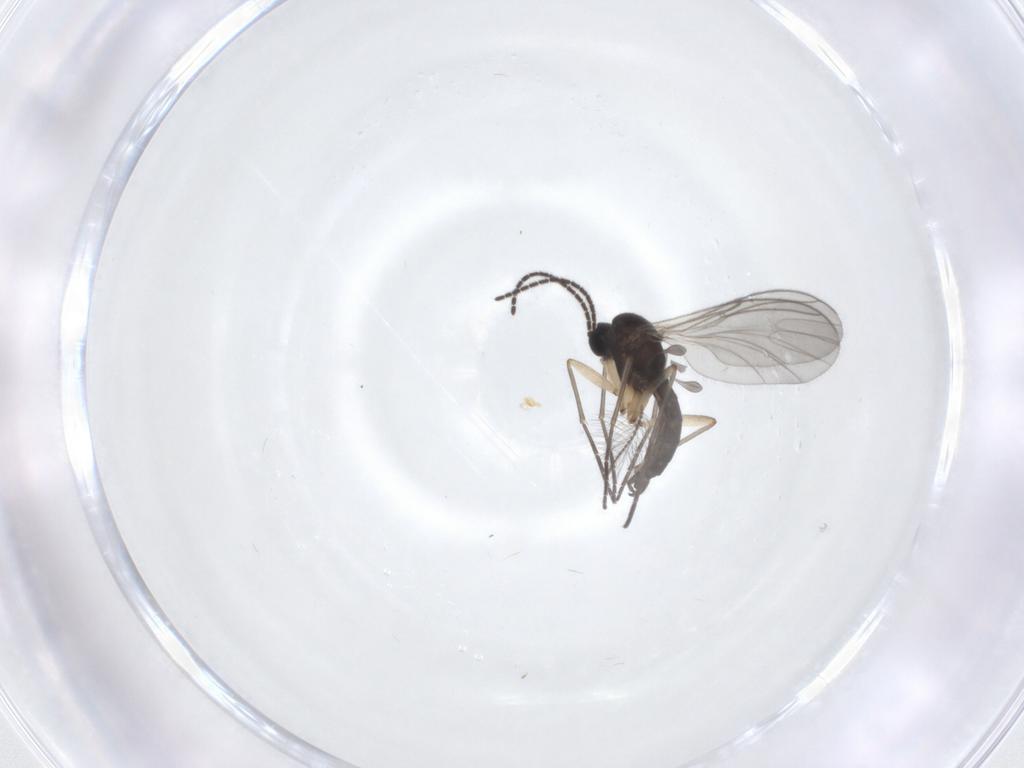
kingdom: Animalia
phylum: Arthropoda
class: Insecta
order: Diptera
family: Sciaridae
